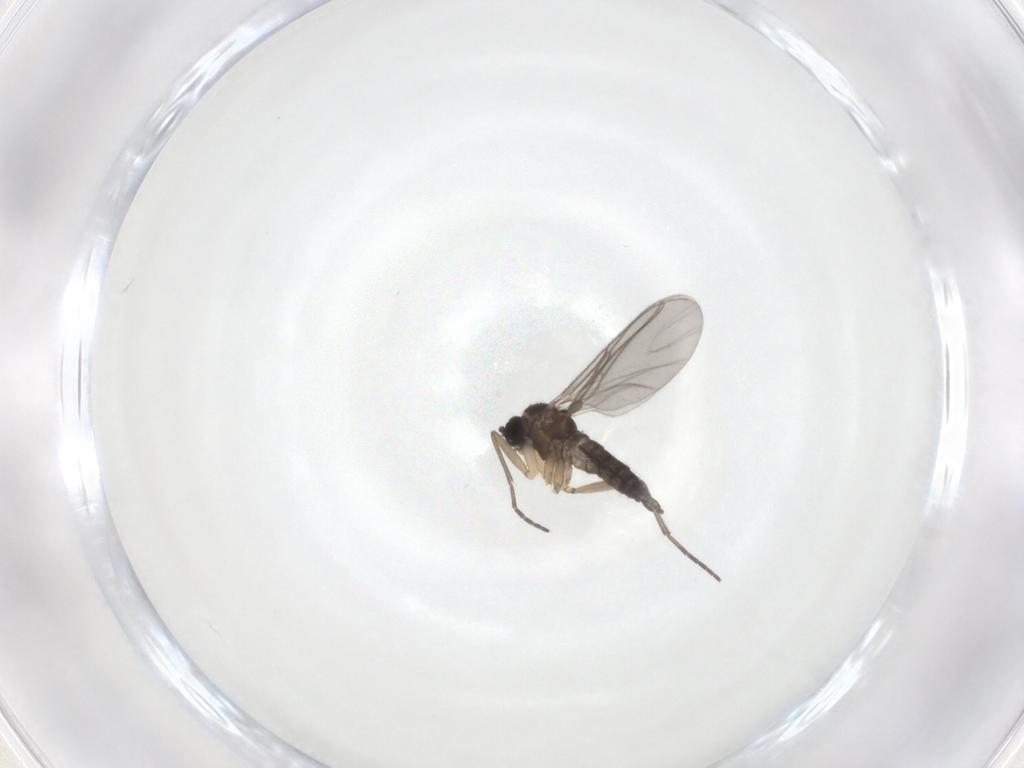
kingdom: Animalia
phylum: Arthropoda
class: Insecta
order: Diptera
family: Sciaridae
